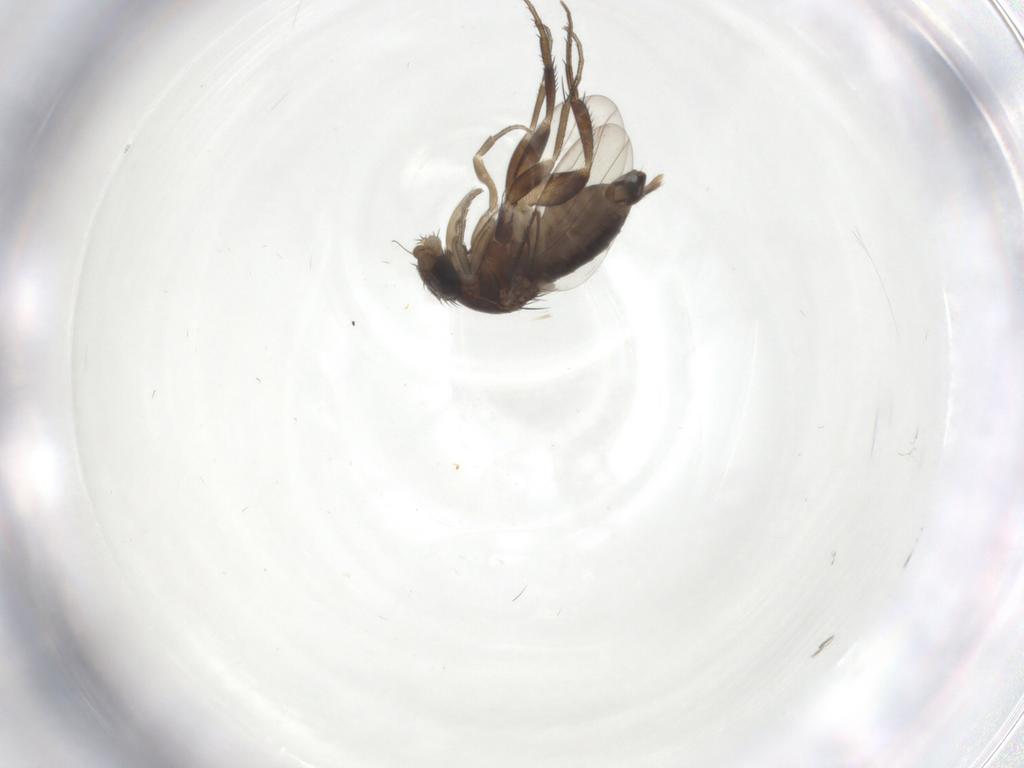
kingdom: Animalia
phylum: Arthropoda
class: Insecta
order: Diptera
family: Phoridae
